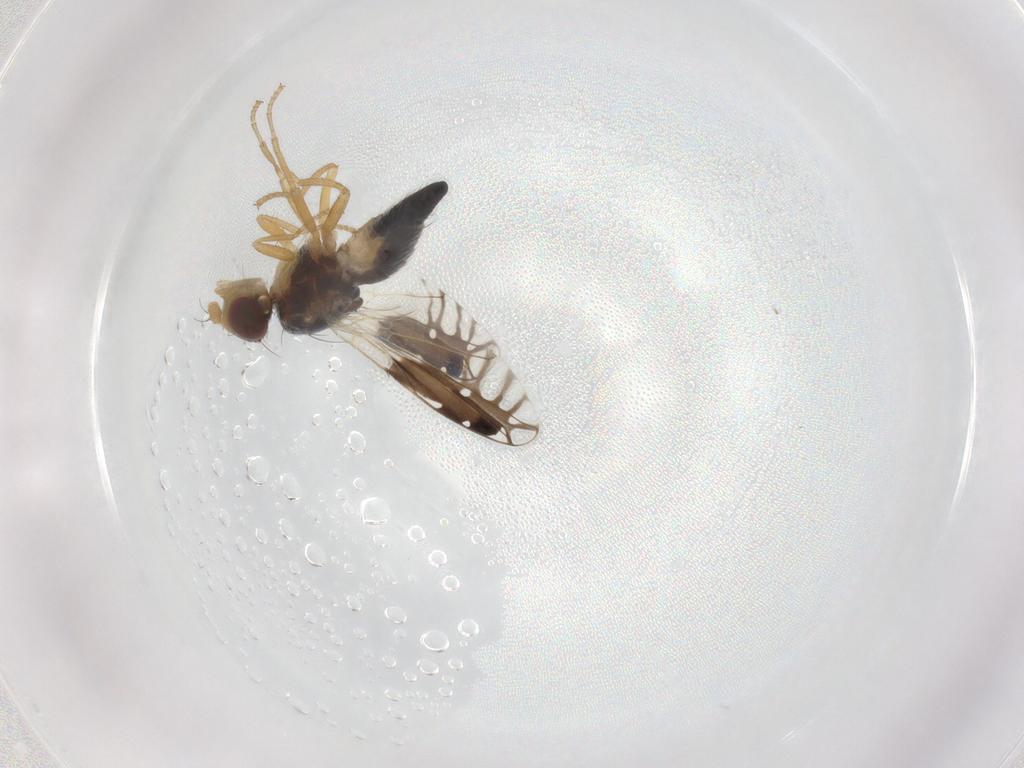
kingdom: Animalia
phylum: Arthropoda
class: Insecta
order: Diptera
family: Tephritidae
